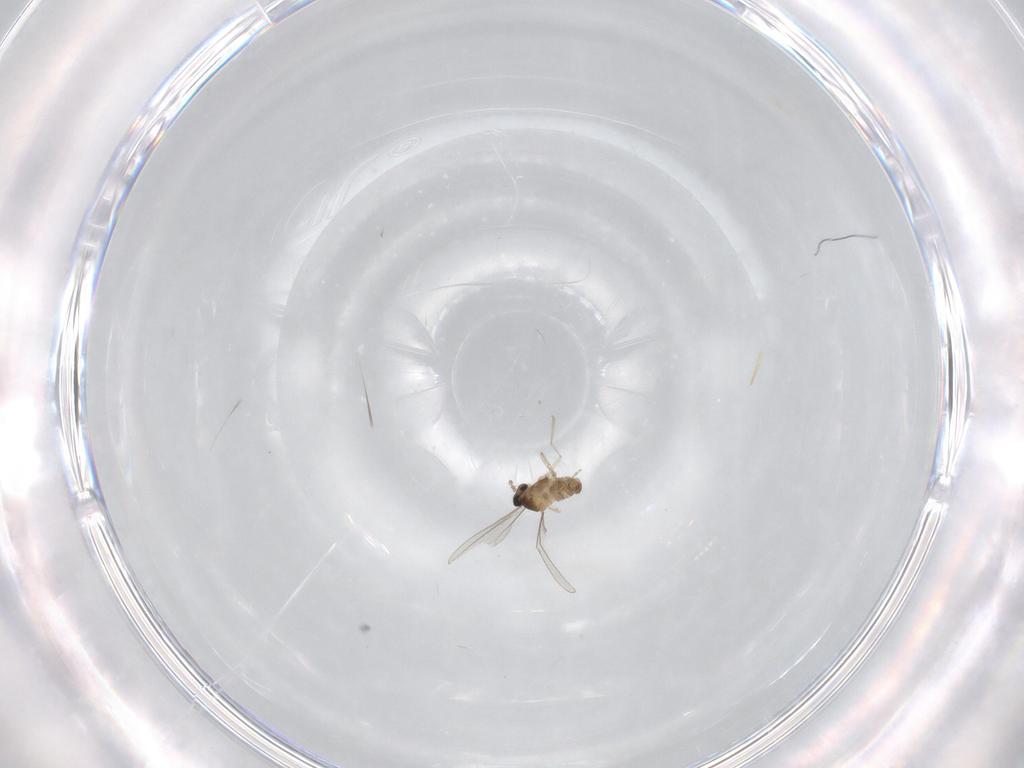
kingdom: Animalia
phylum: Arthropoda
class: Insecta
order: Diptera
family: Cecidomyiidae
